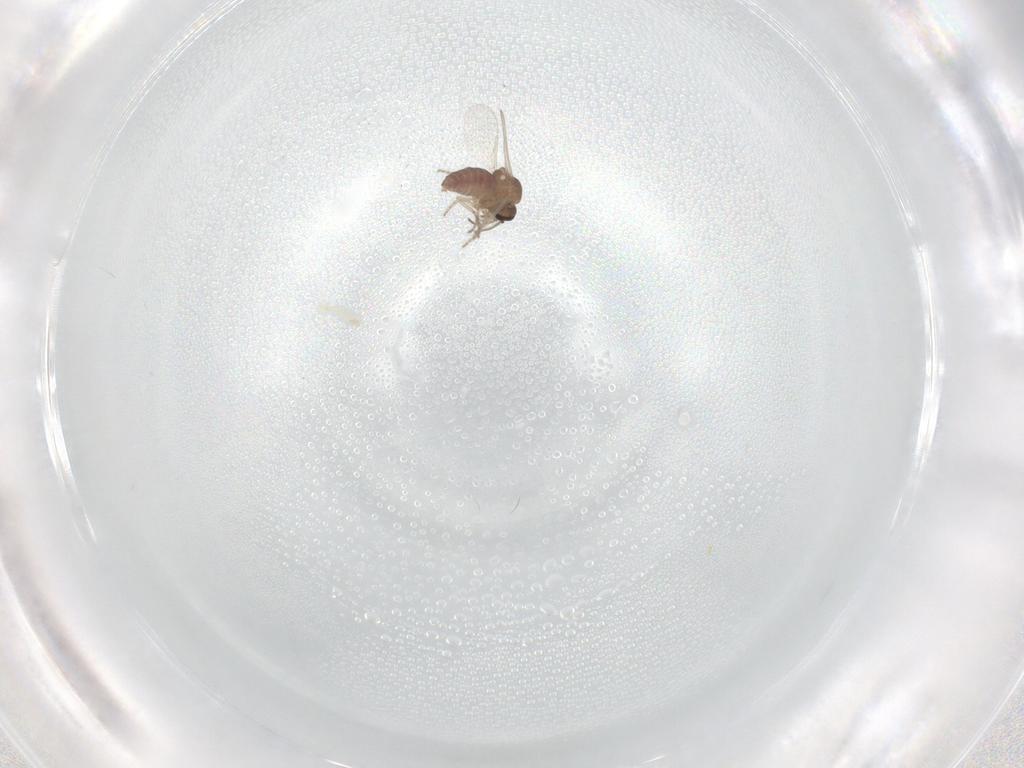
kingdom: Animalia
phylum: Arthropoda
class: Insecta
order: Diptera
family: Ceratopogonidae
